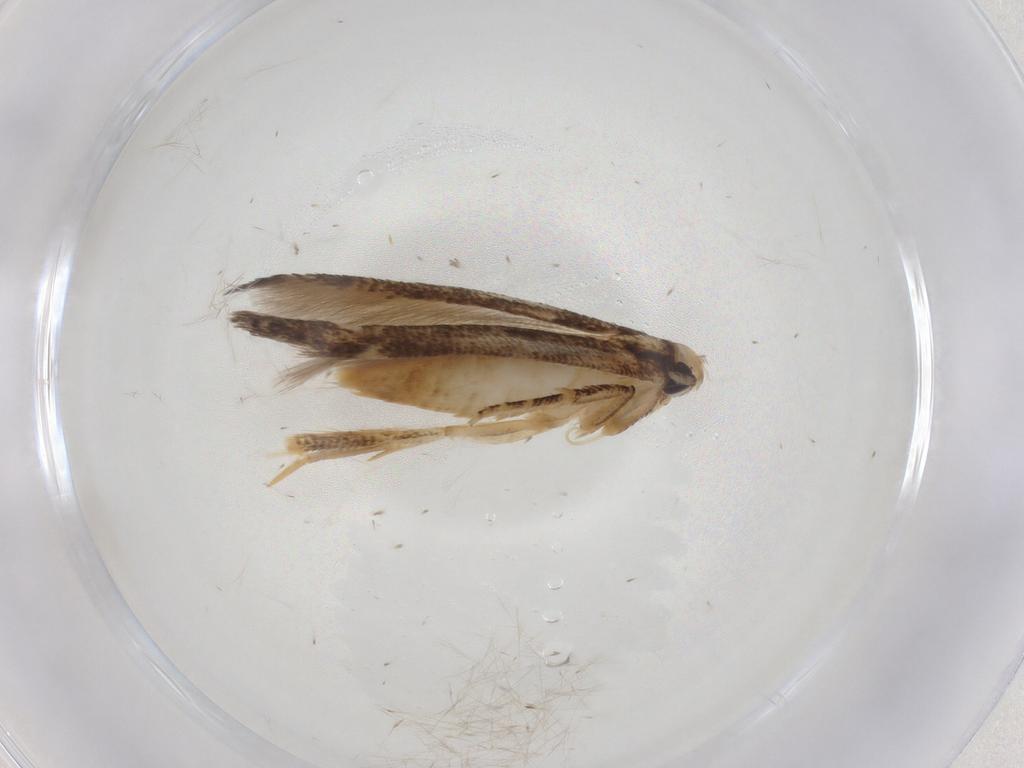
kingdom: Animalia
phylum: Arthropoda
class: Insecta
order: Lepidoptera
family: Cosmopterigidae
